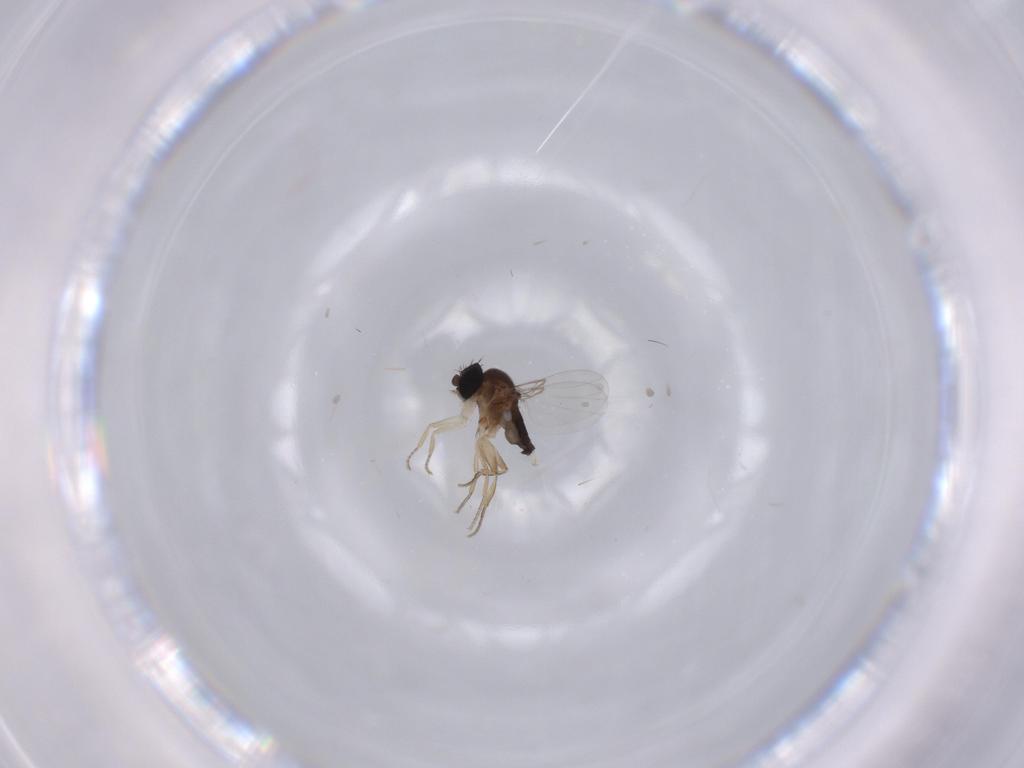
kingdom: Animalia
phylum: Arthropoda
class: Insecta
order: Diptera
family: Phoridae
